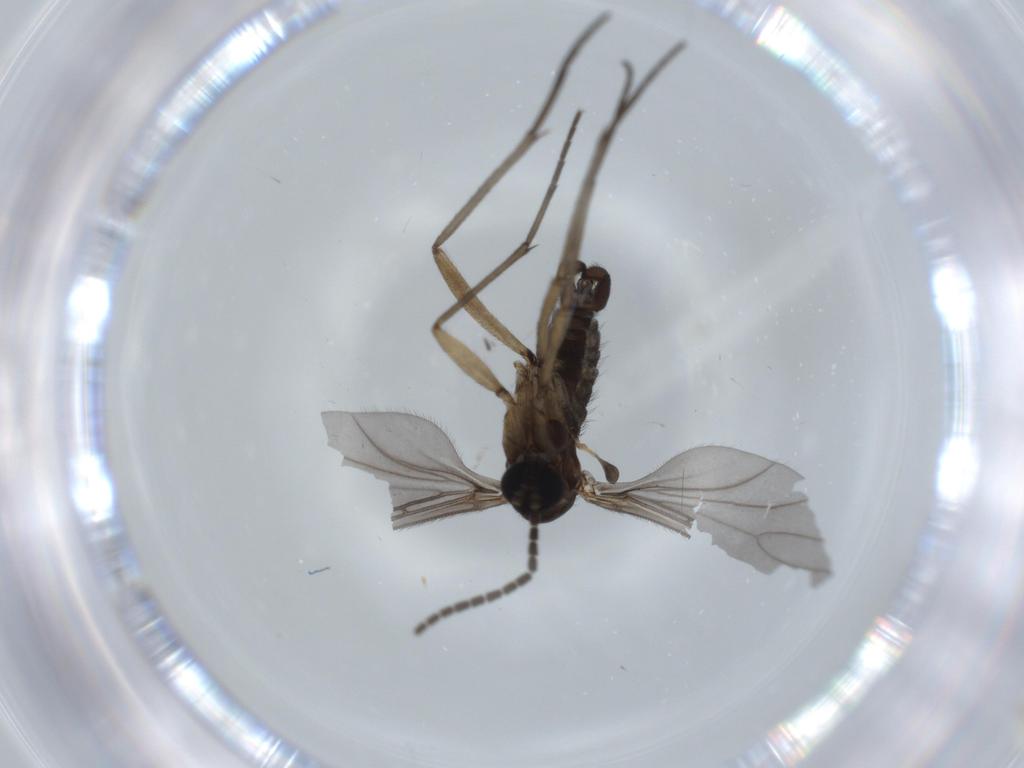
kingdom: Animalia
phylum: Arthropoda
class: Insecta
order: Diptera
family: Sciaridae
